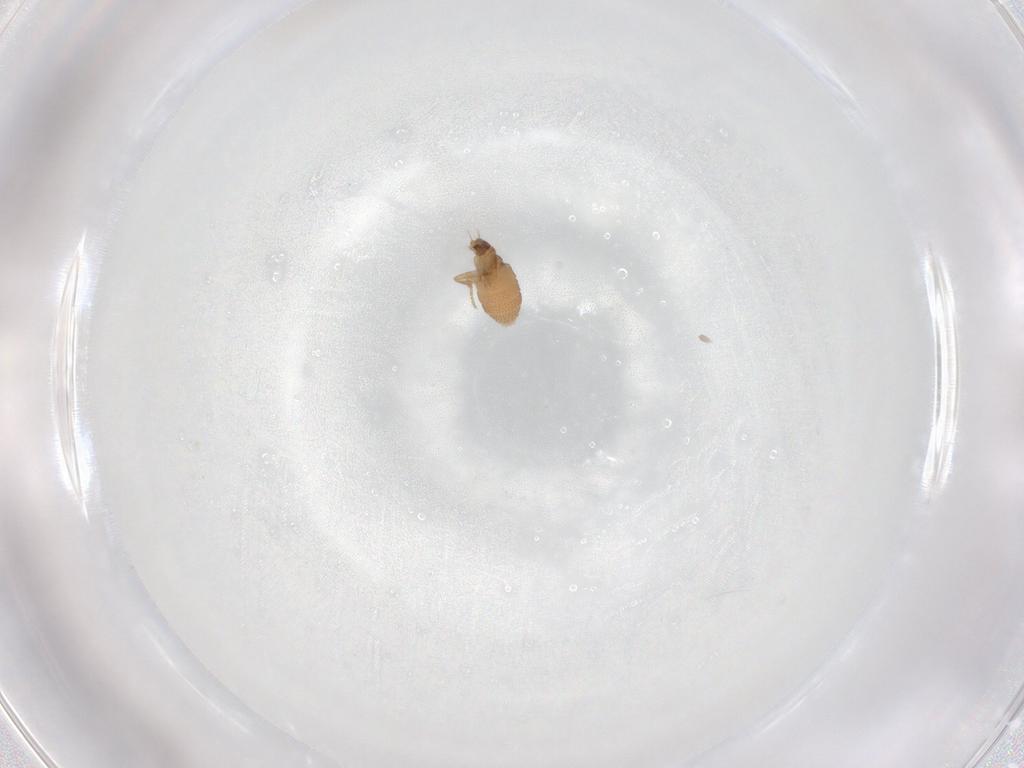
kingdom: Animalia
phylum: Arthropoda
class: Insecta
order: Diptera
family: Ceratopogonidae
